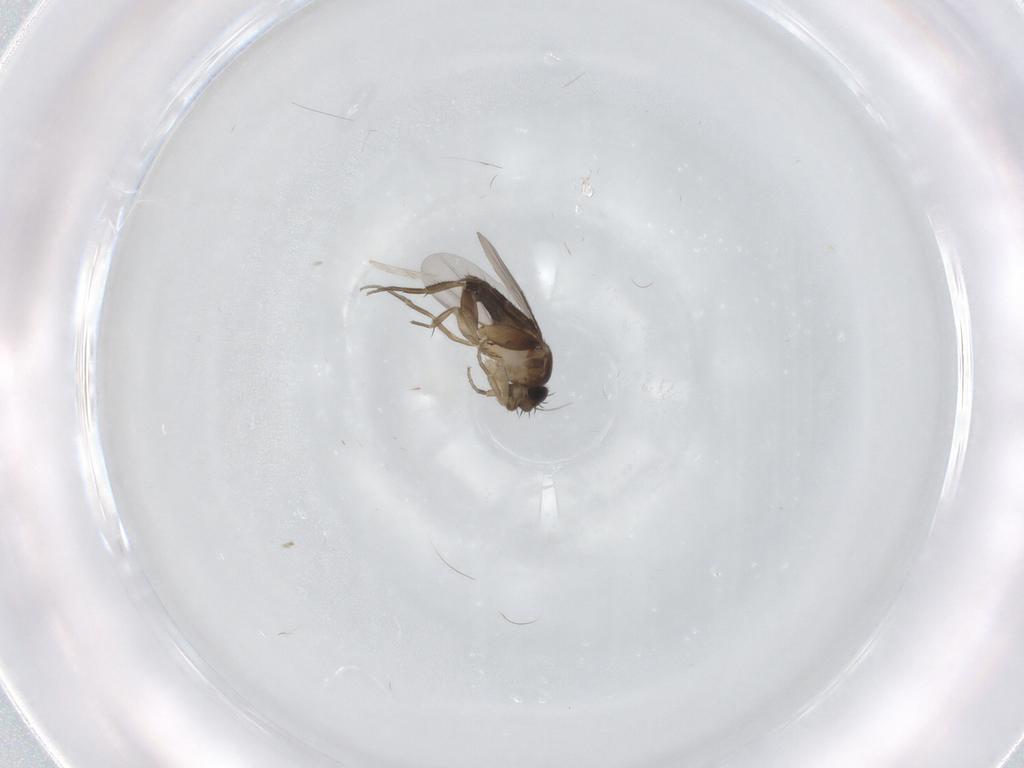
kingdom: Animalia
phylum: Arthropoda
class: Insecta
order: Diptera
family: Phoridae
